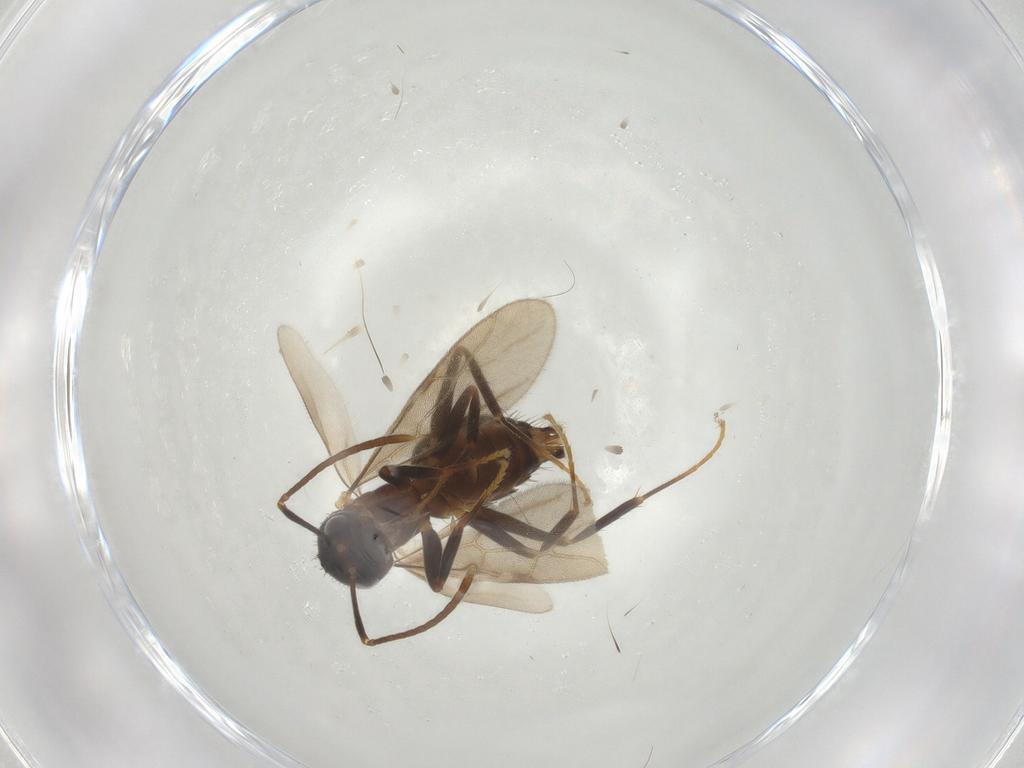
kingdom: Animalia
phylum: Arthropoda
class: Insecta
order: Hymenoptera
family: Formicidae
